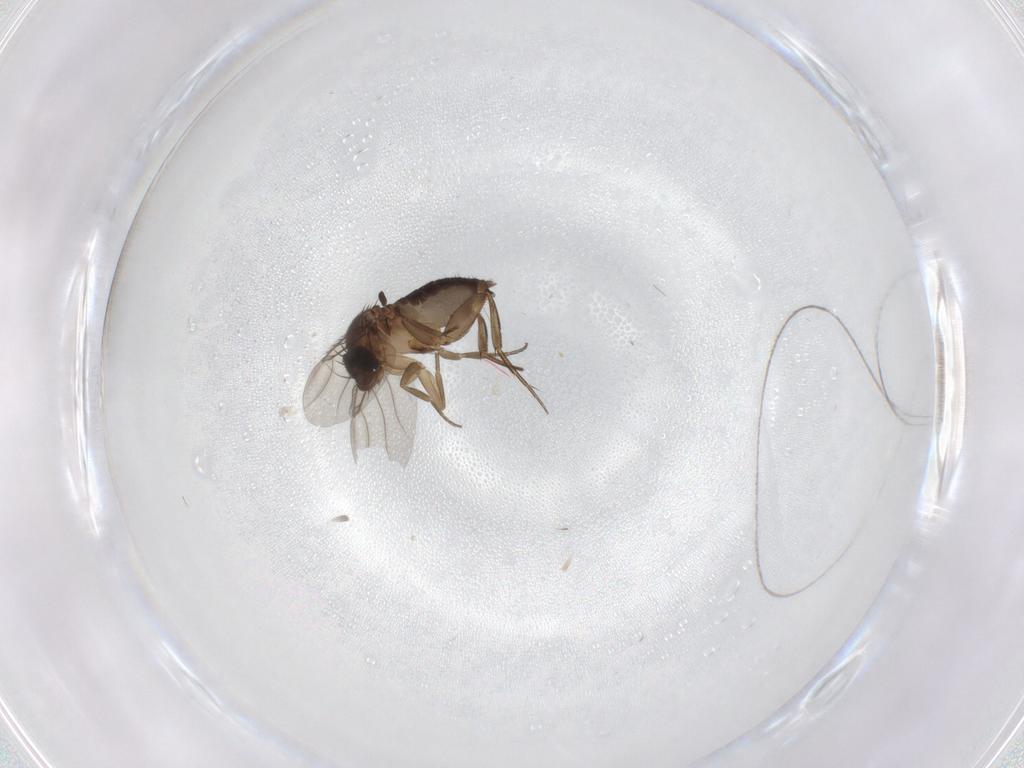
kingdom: Animalia
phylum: Arthropoda
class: Insecta
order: Diptera
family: Phoridae
